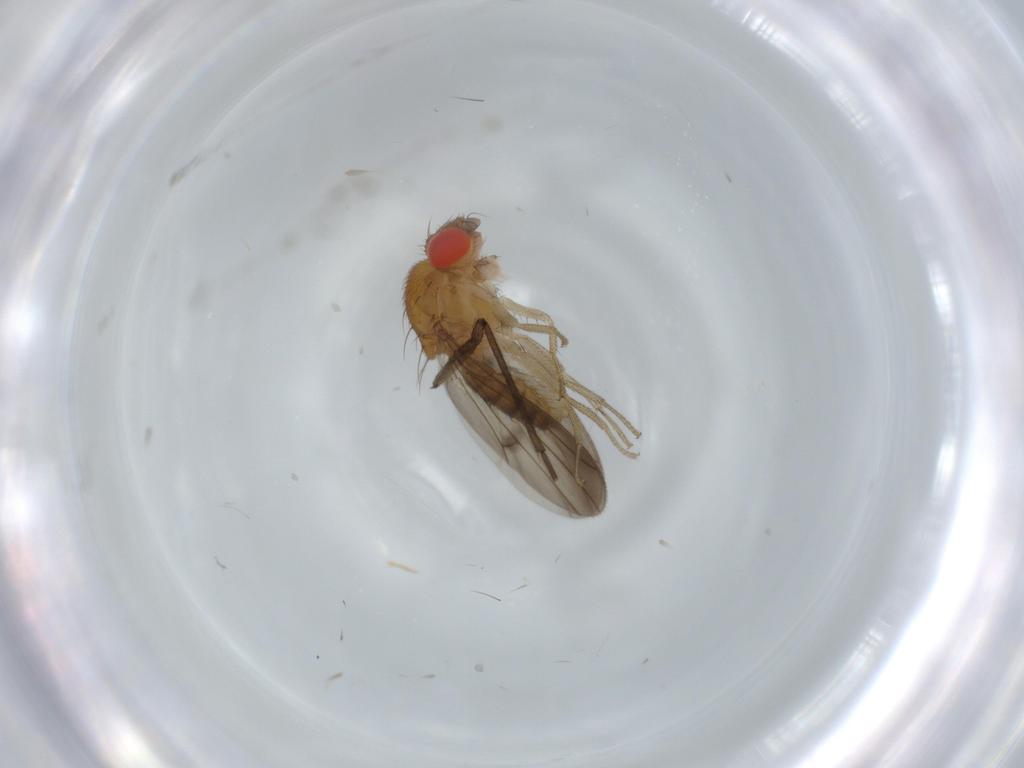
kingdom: Animalia
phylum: Arthropoda
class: Insecta
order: Diptera
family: Drosophilidae
